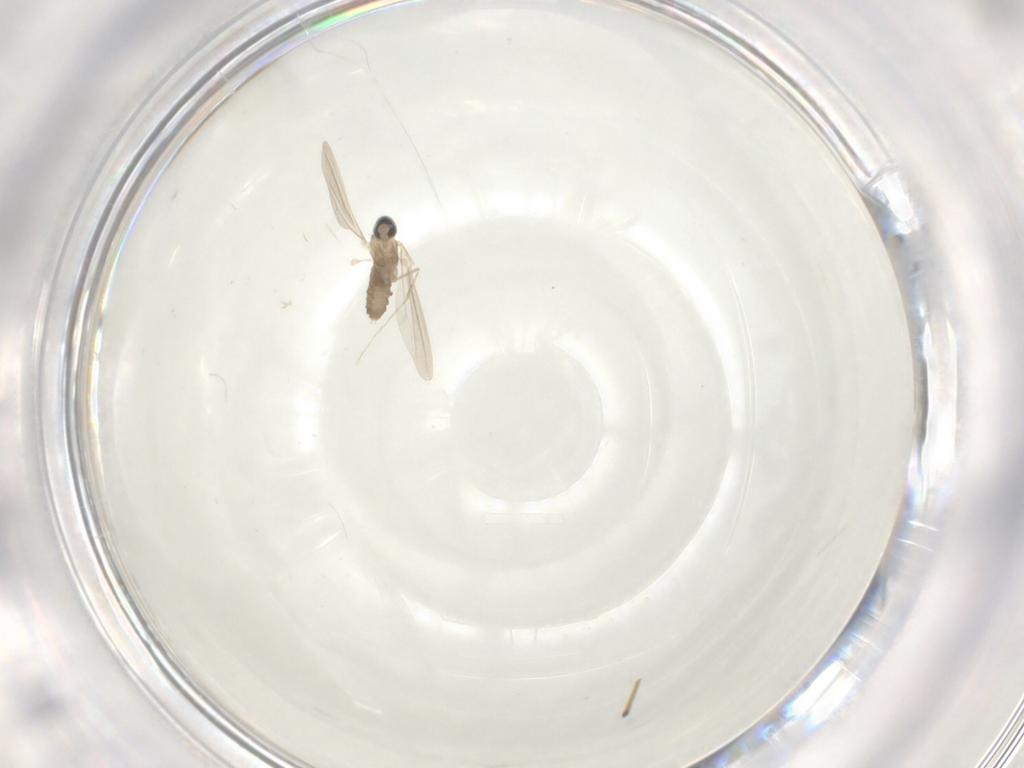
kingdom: Animalia
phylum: Arthropoda
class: Insecta
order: Diptera
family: Cecidomyiidae
